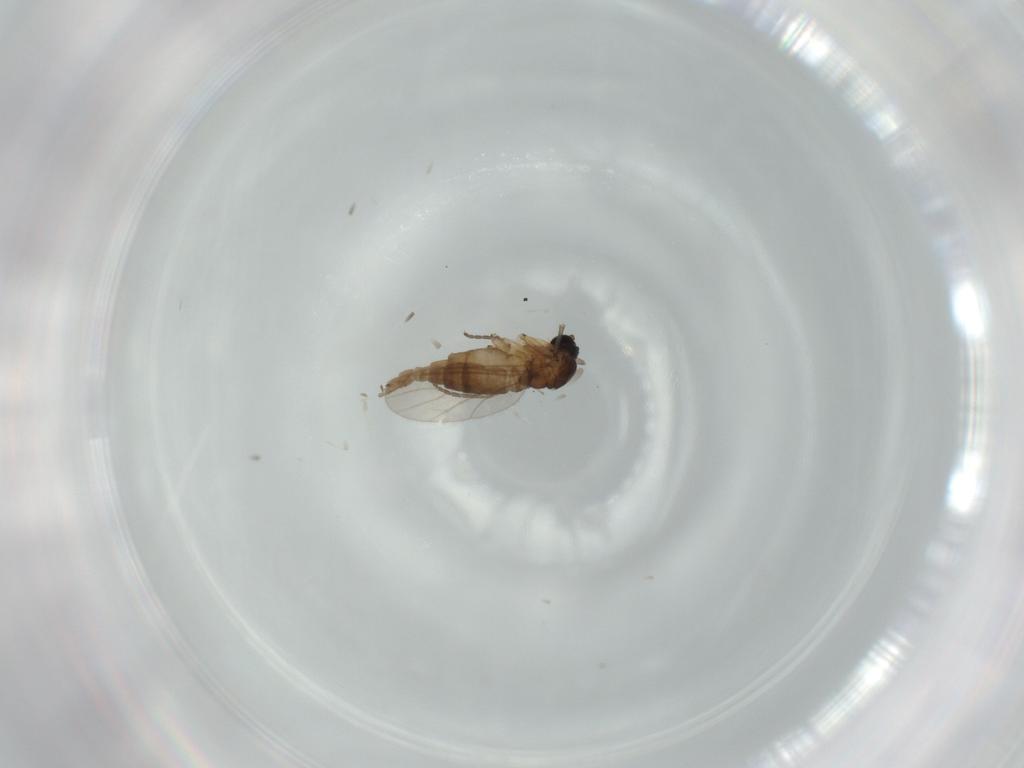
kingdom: Animalia
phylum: Arthropoda
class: Insecta
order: Diptera
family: Sciaridae
